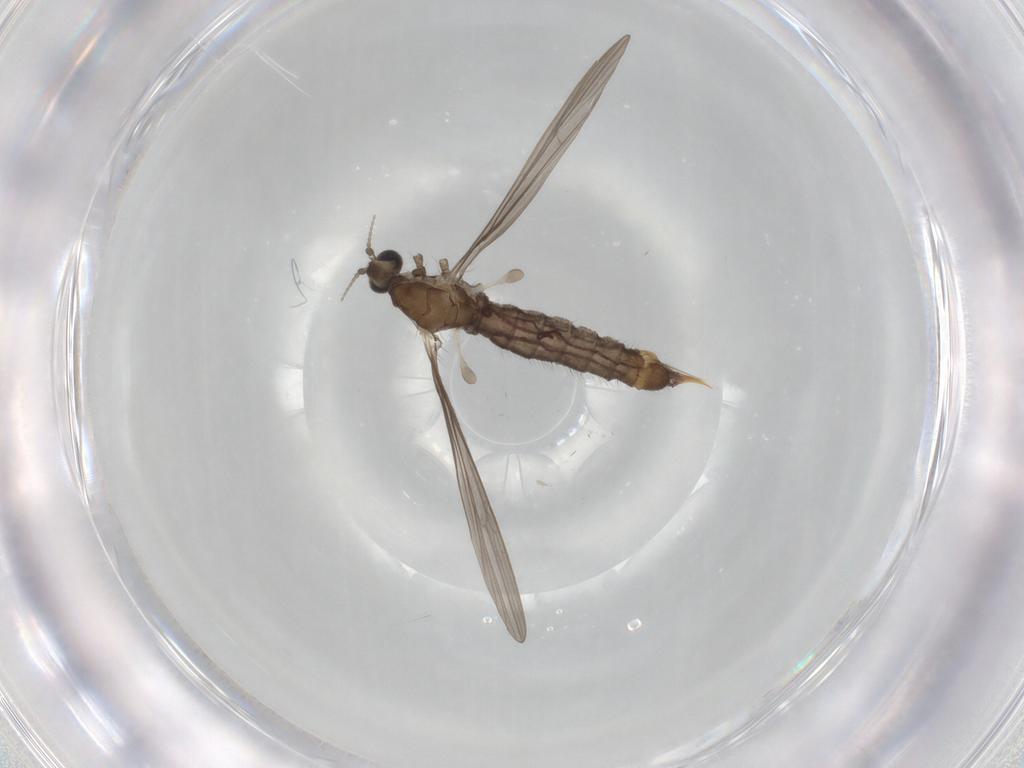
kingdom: Animalia
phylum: Arthropoda
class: Insecta
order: Diptera
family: Limoniidae
